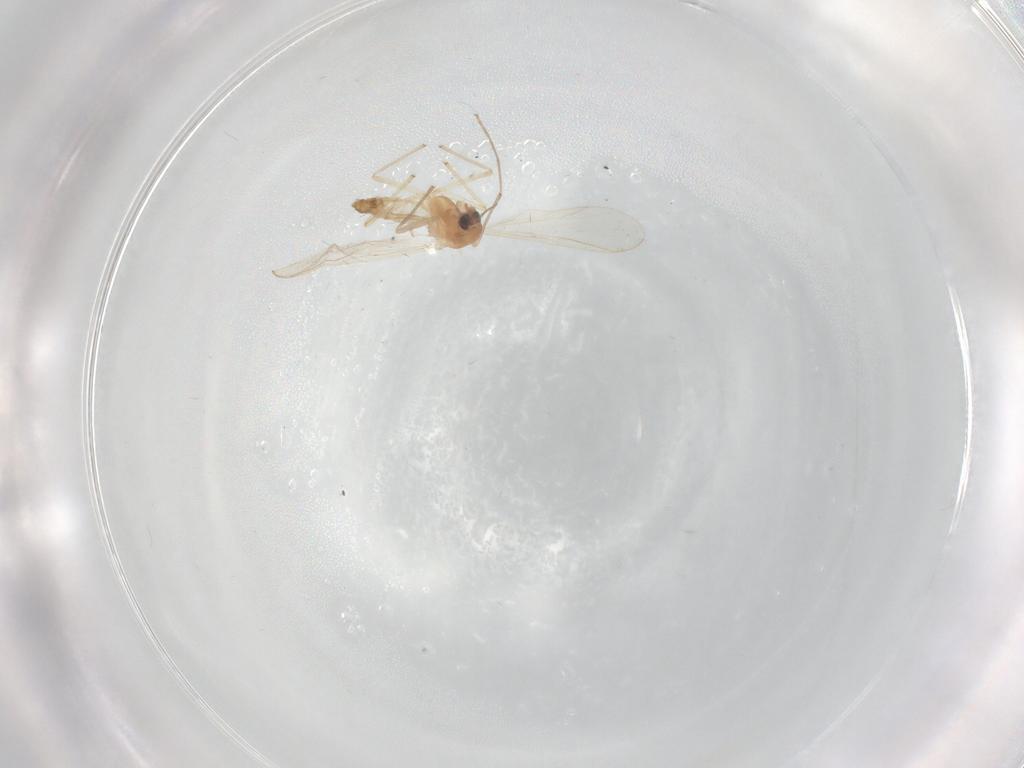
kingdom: Animalia
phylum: Arthropoda
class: Insecta
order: Diptera
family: Chironomidae
